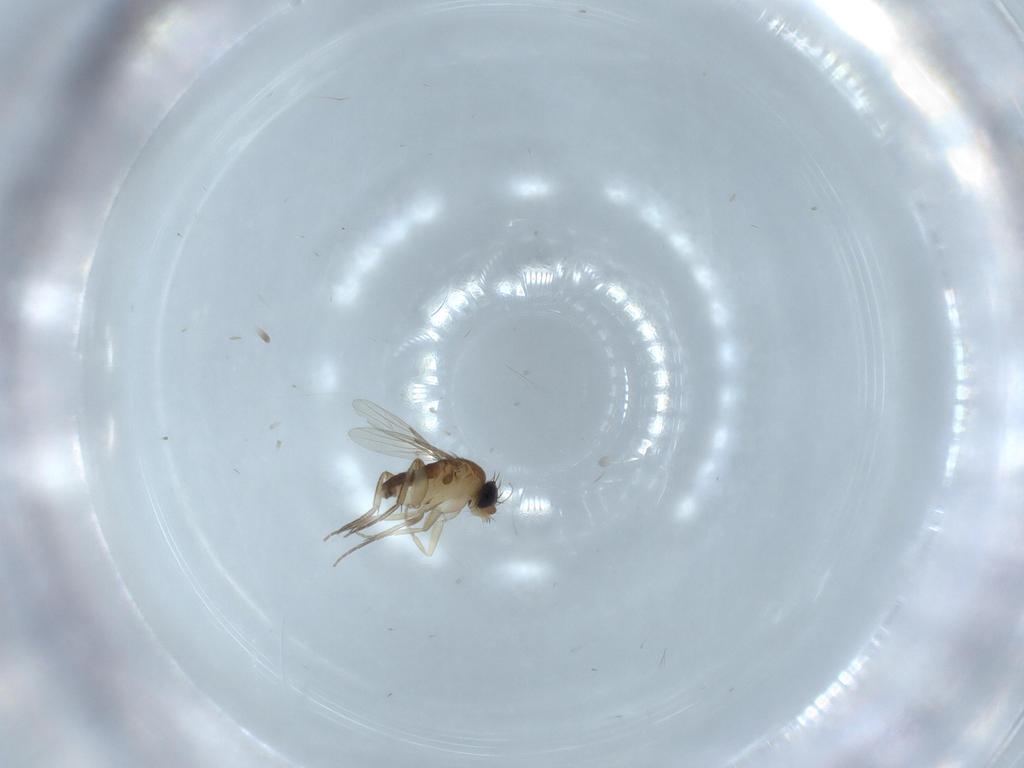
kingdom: Animalia
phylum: Arthropoda
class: Insecta
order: Diptera
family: Phoridae
